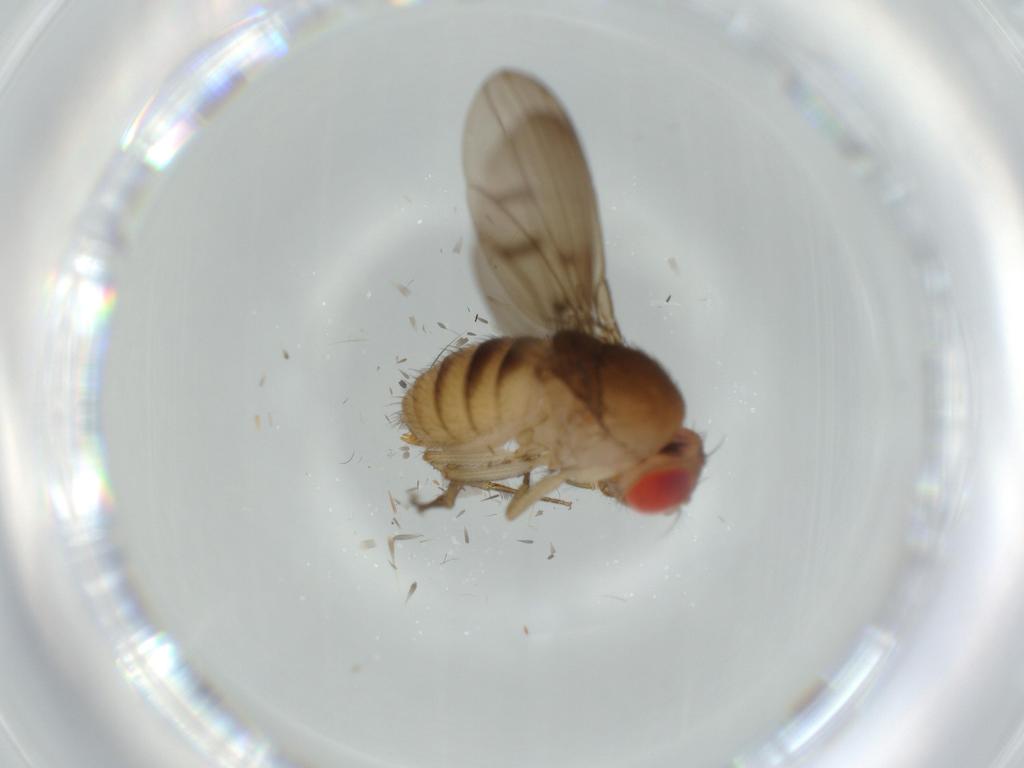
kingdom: Animalia
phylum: Arthropoda
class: Insecta
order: Diptera
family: Drosophilidae
